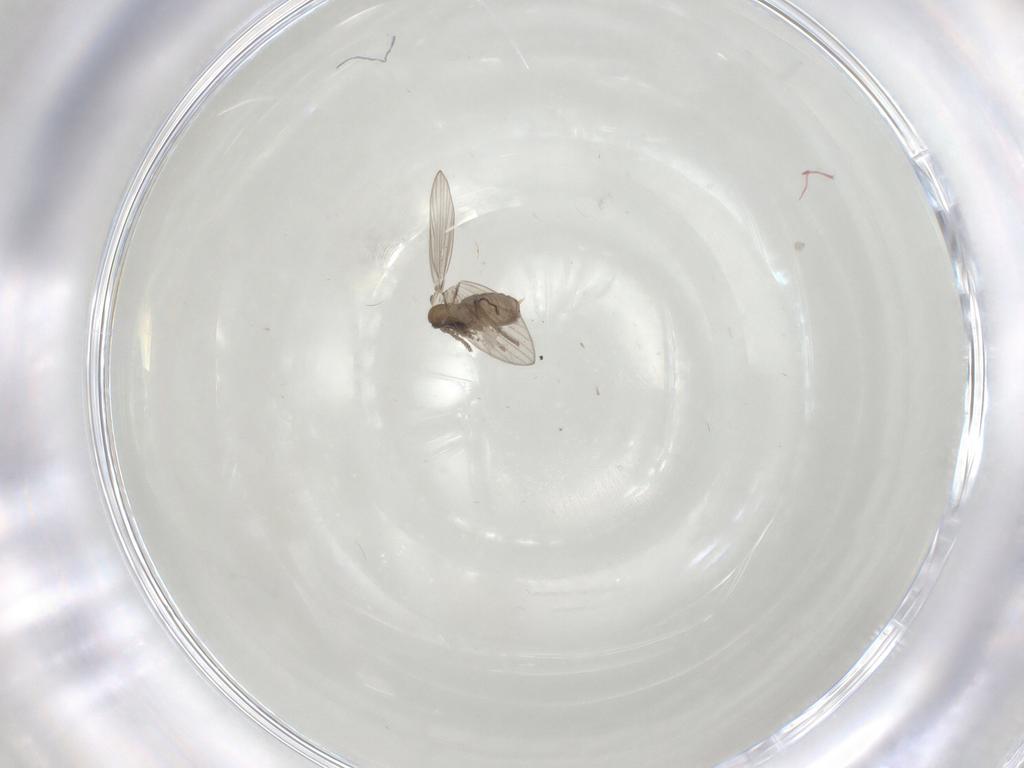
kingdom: Animalia
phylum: Arthropoda
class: Insecta
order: Diptera
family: Psychodidae
